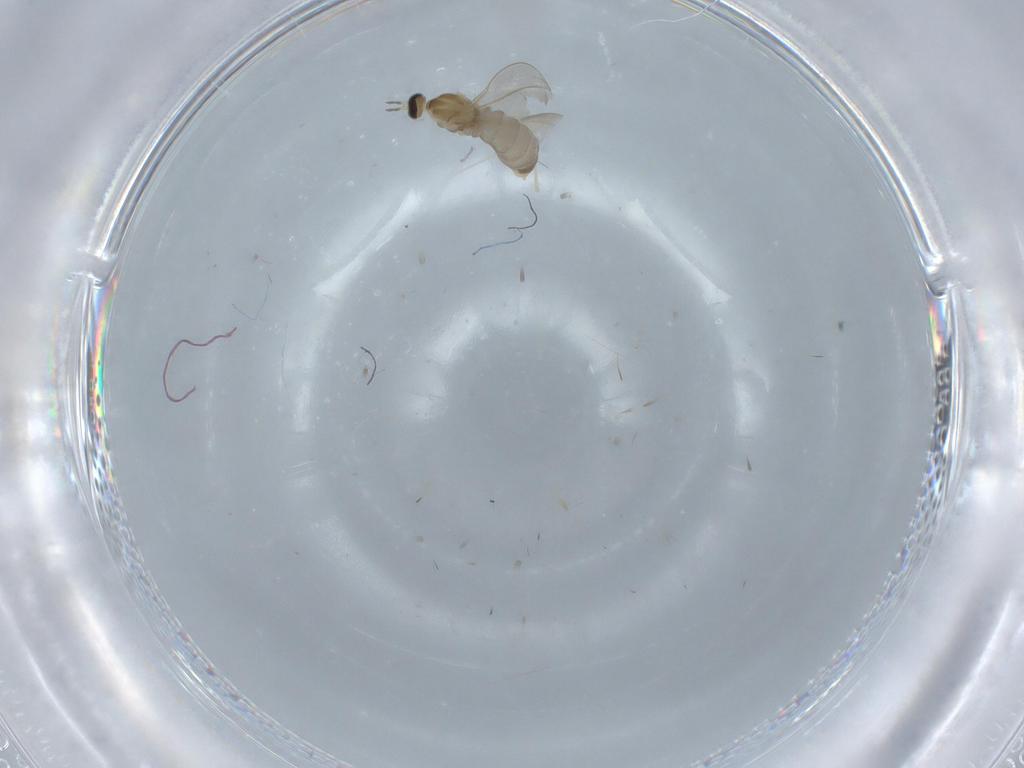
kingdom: Animalia
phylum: Arthropoda
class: Insecta
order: Diptera
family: Cecidomyiidae
